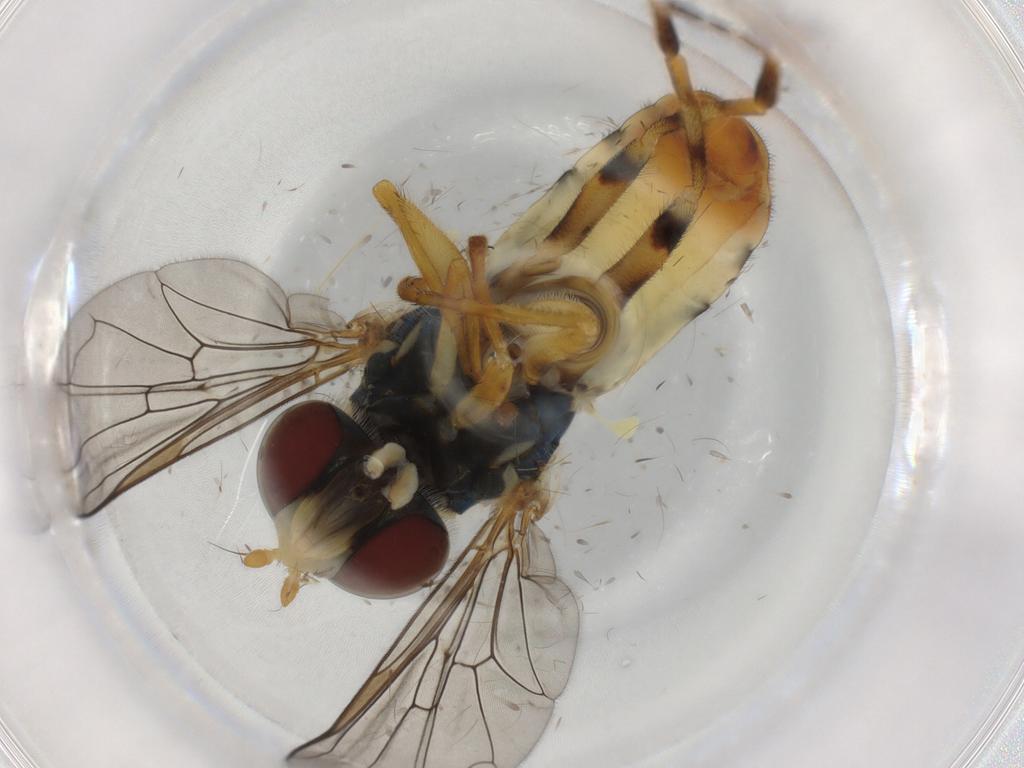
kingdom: Animalia
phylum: Arthropoda
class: Insecta
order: Diptera
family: Syrphidae
